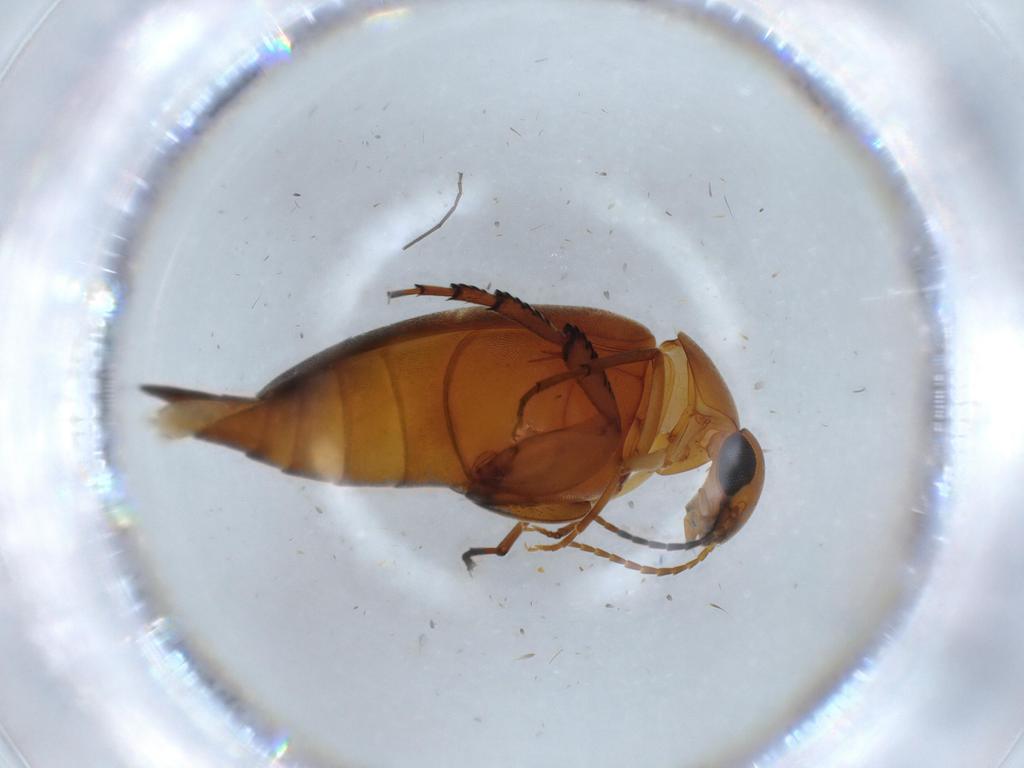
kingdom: Animalia
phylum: Arthropoda
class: Insecta
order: Coleoptera
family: Mordellidae
